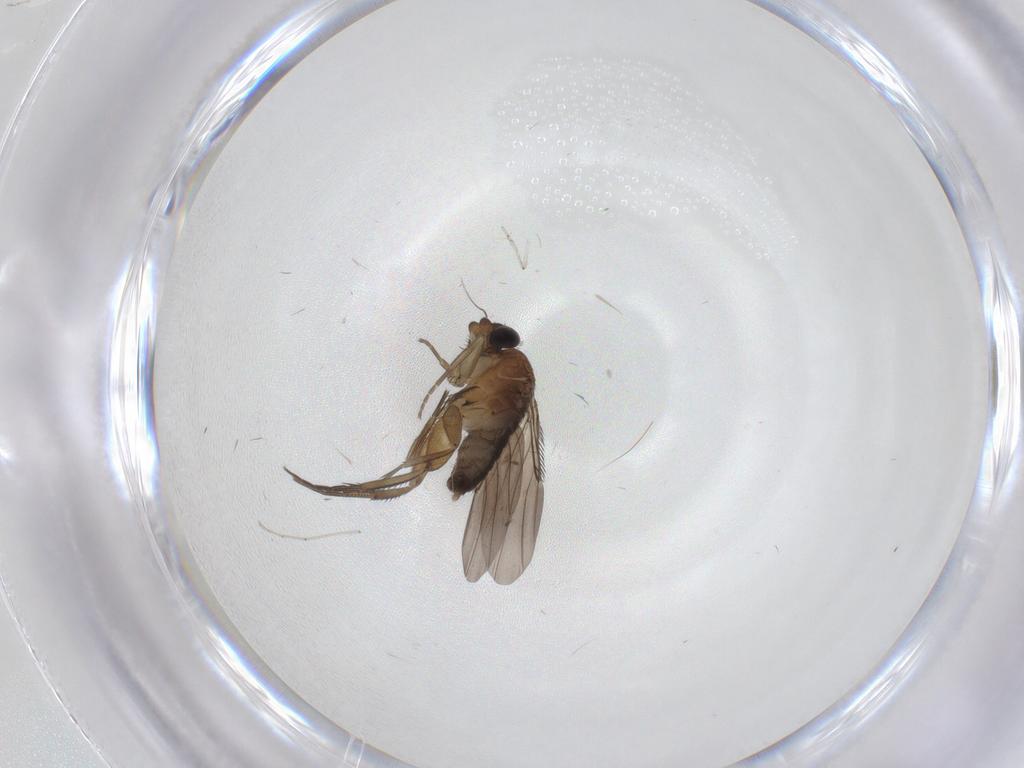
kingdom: Animalia
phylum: Arthropoda
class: Insecta
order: Diptera
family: Phoridae
